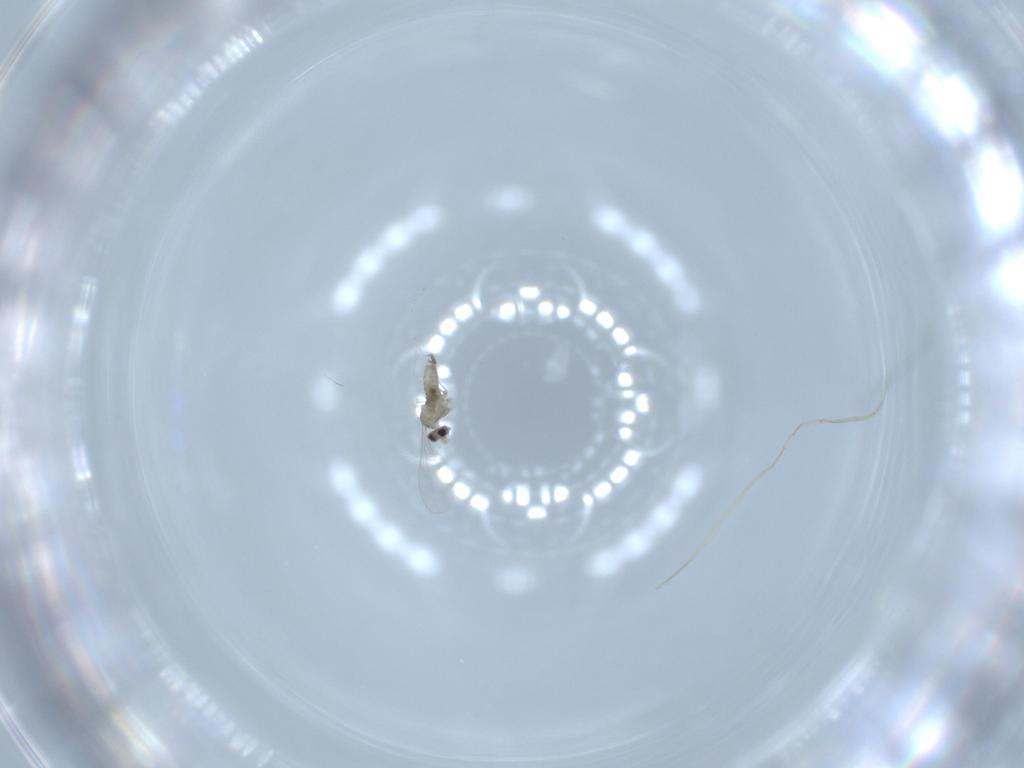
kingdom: Animalia
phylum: Arthropoda
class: Insecta
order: Diptera
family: Cecidomyiidae
